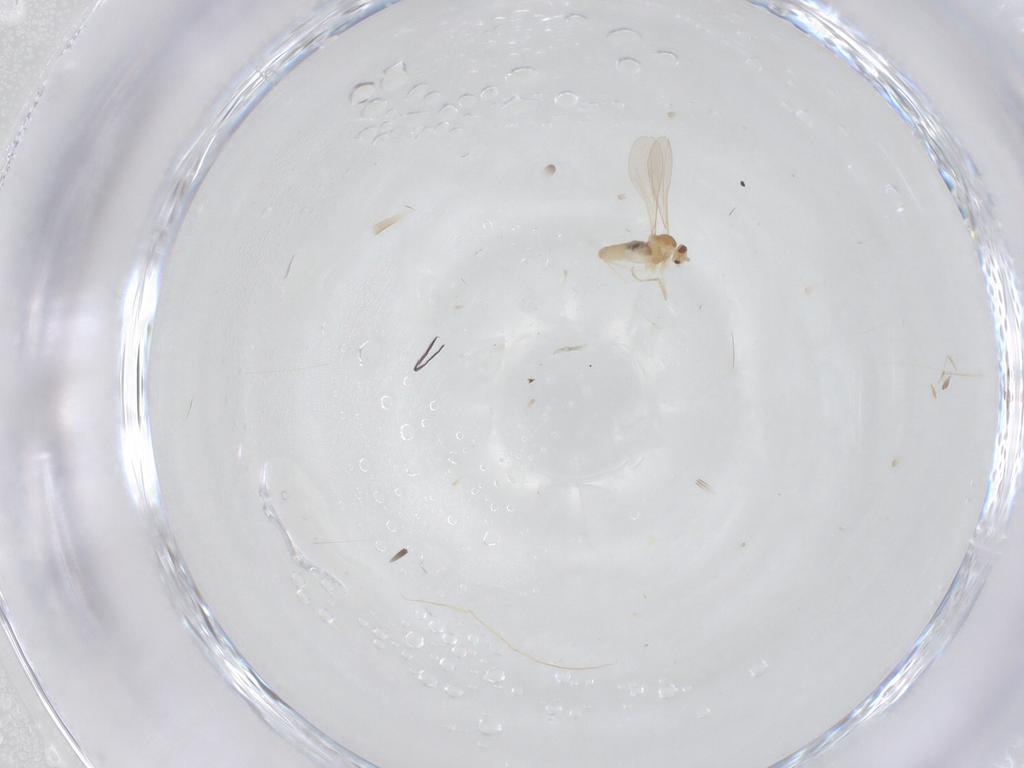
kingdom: Animalia
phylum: Arthropoda
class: Insecta
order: Diptera
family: Cecidomyiidae
